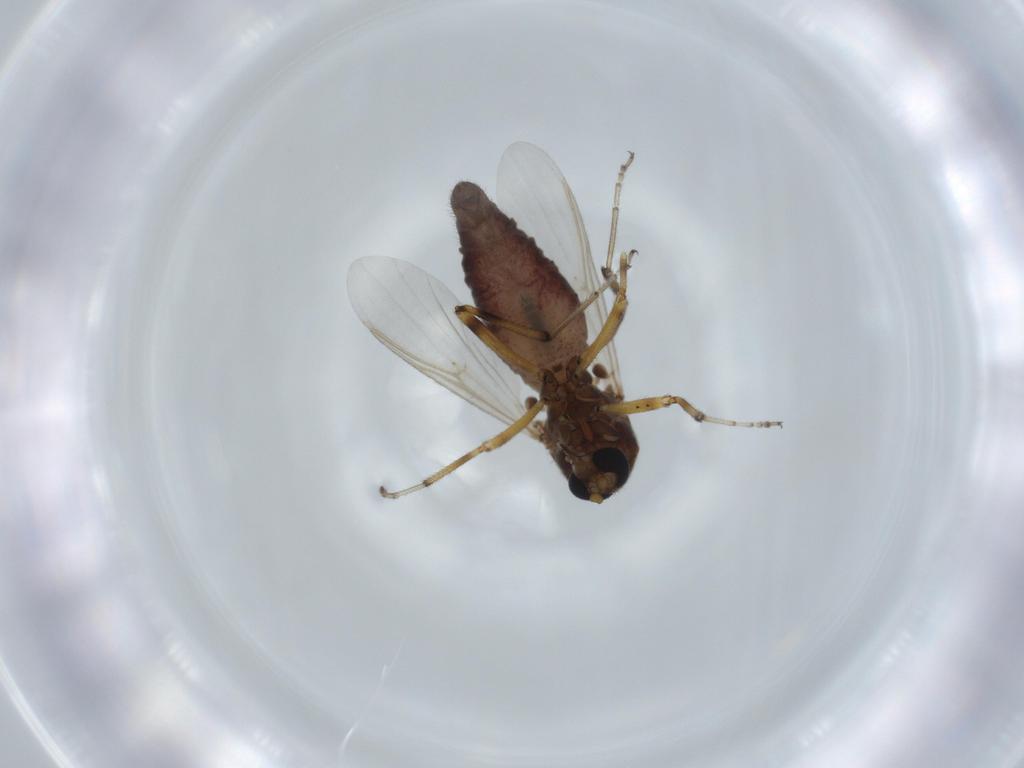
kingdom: Animalia
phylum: Arthropoda
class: Insecta
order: Diptera
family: Ceratopogonidae
